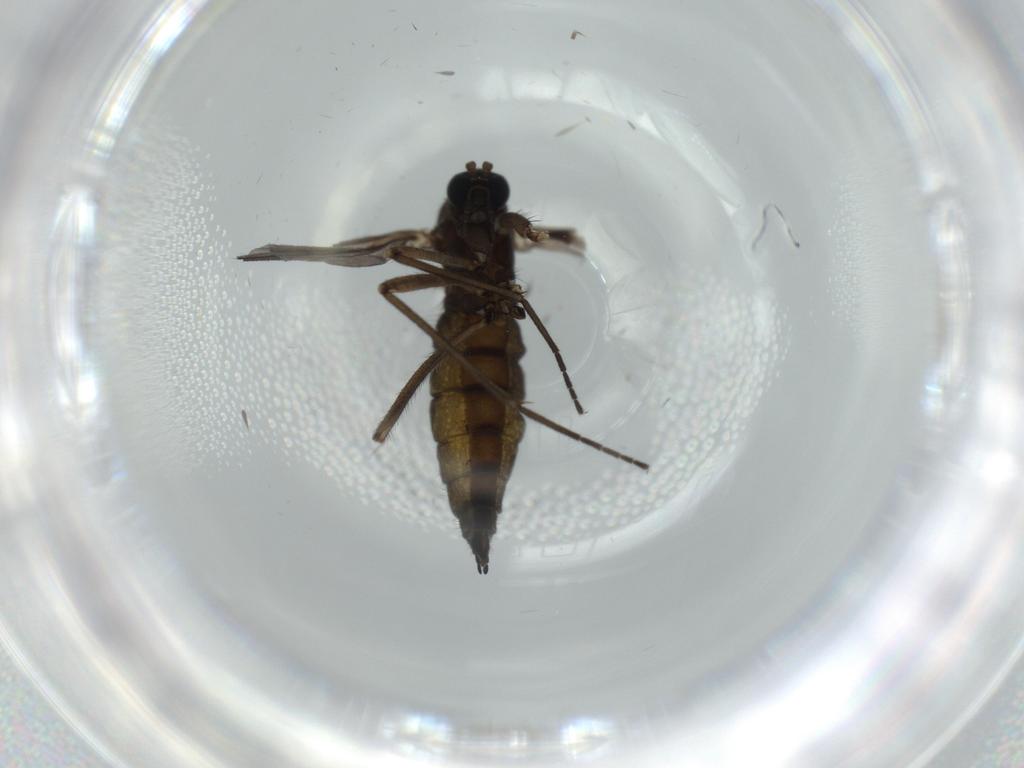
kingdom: Animalia
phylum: Arthropoda
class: Insecta
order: Diptera
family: Sciaridae
